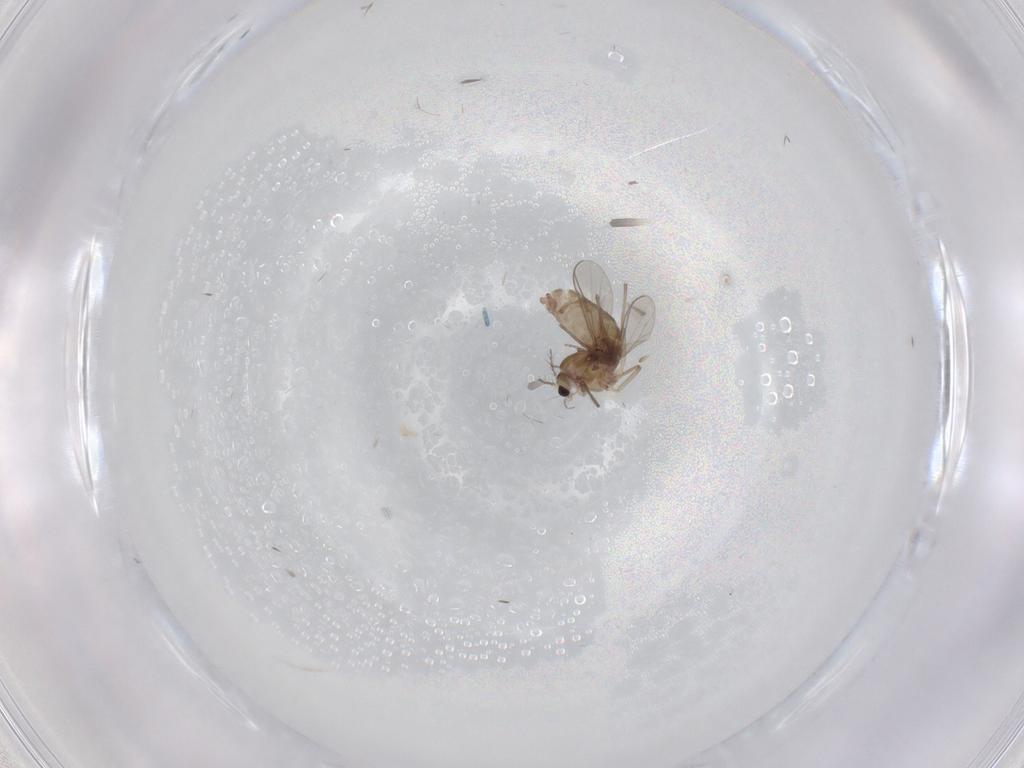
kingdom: Animalia
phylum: Arthropoda
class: Insecta
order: Diptera
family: Chironomidae
